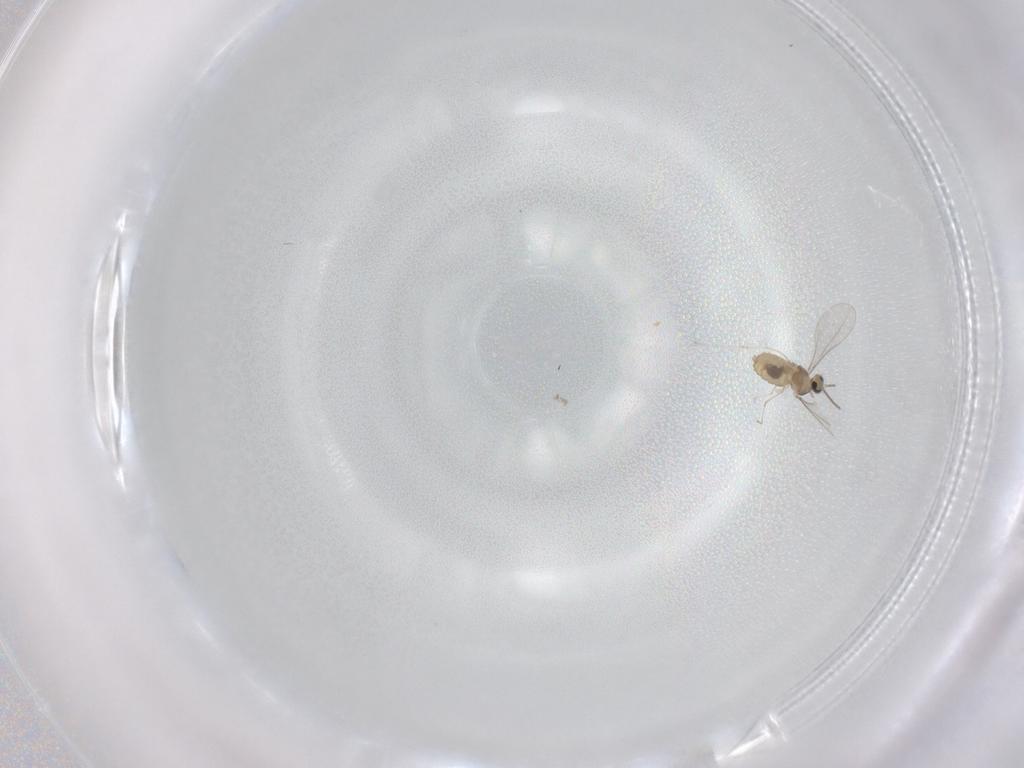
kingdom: Animalia
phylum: Arthropoda
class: Insecta
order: Diptera
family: Cecidomyiidae
